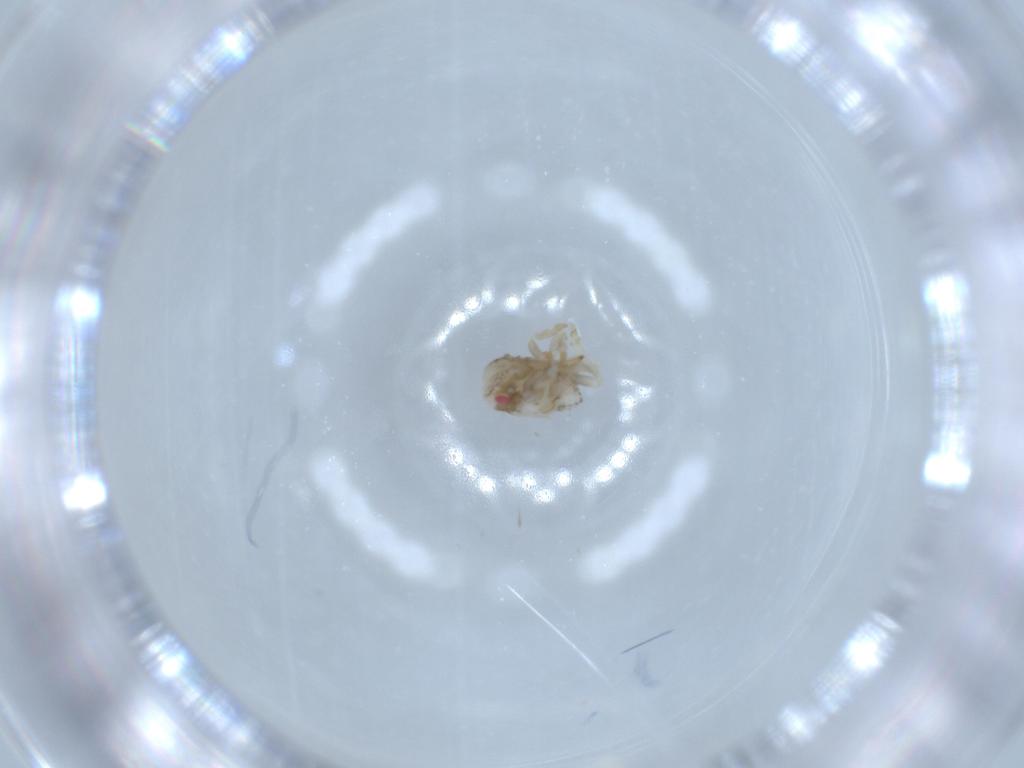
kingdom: Animalia
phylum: Arthropoda
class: Insecta
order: Hemiptera
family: Acanaloniidae
